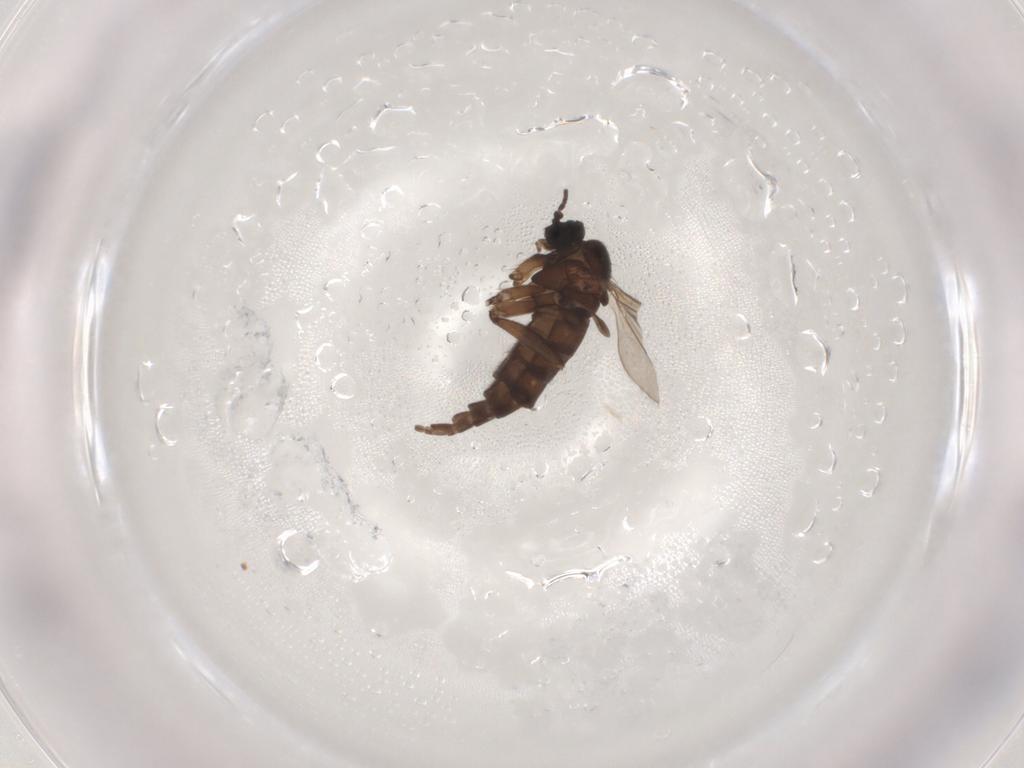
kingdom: Animalia
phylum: Arthropoda
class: Insecta
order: Diptera
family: Sciaridae
